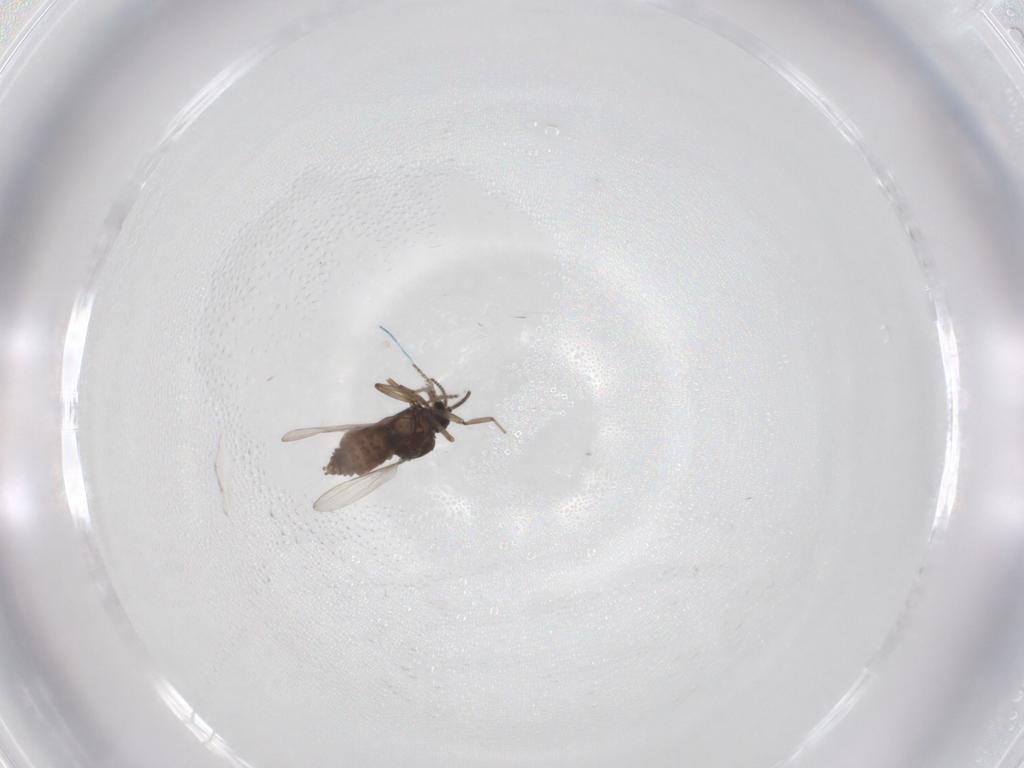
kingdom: Animalia
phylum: Arthropoda
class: Insecta
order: Diptera
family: Ceratopogonidae
